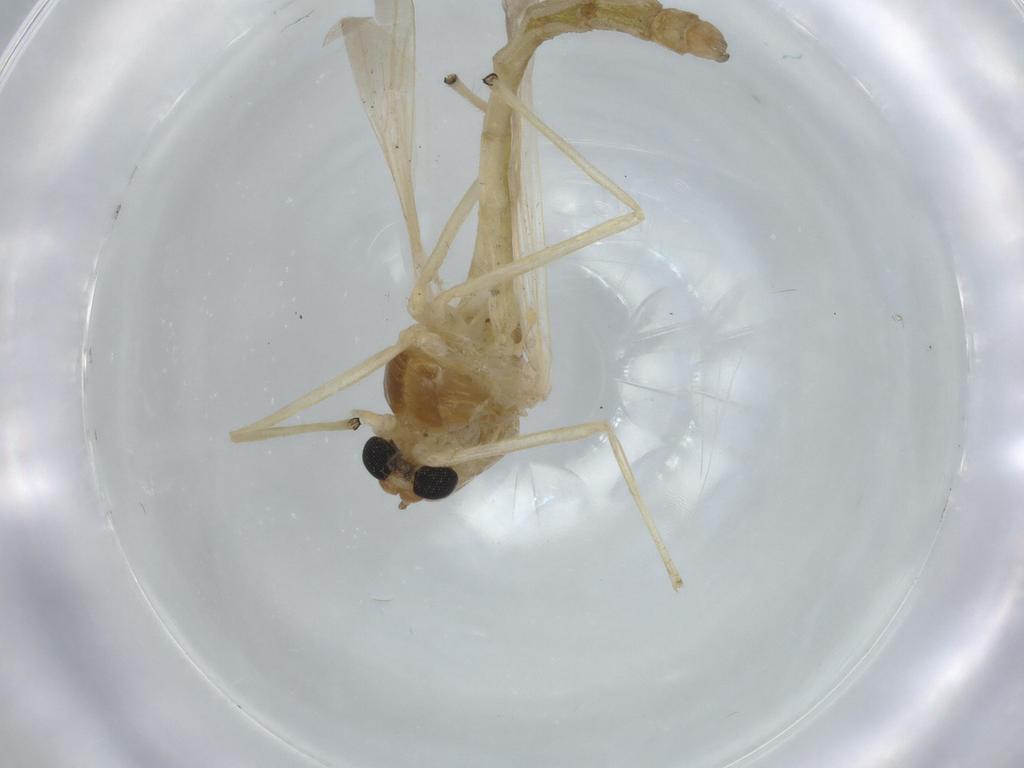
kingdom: Animalia
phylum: Arthropoda
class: Insecta
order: Diptera
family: Chironomidae
